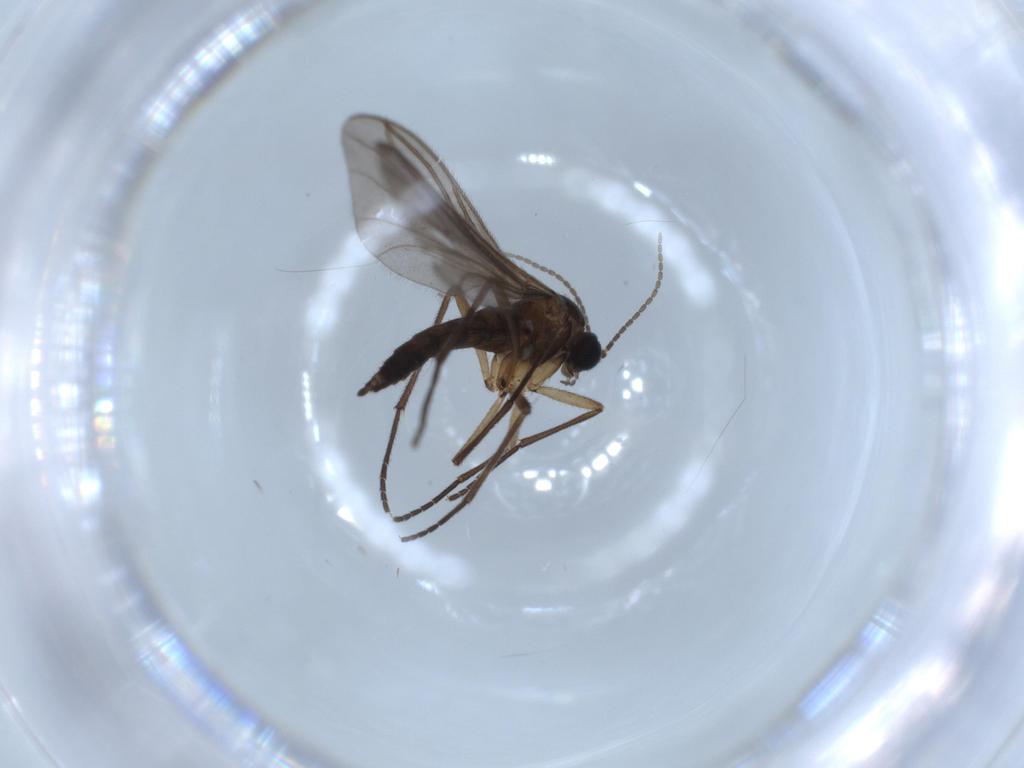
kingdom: Animalia
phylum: Arthropoda
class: Insecta
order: Diptera
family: Sciaridae
